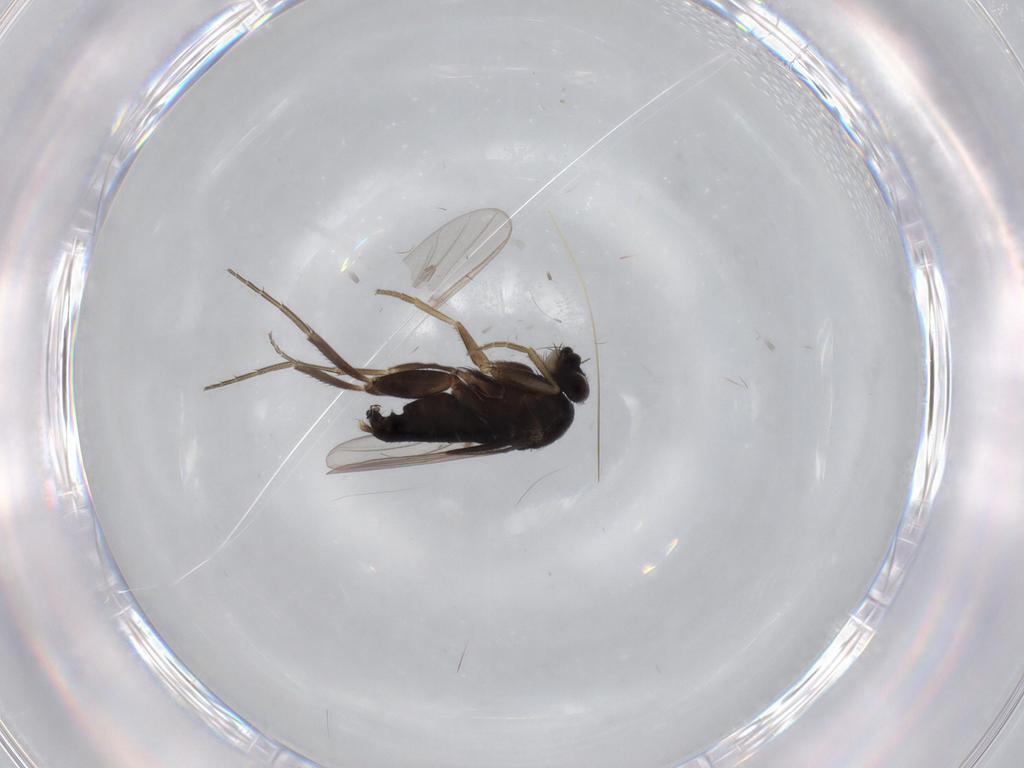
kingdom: Animalia
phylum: Arthropoda
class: Insecta
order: Diptera
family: Phoridae
